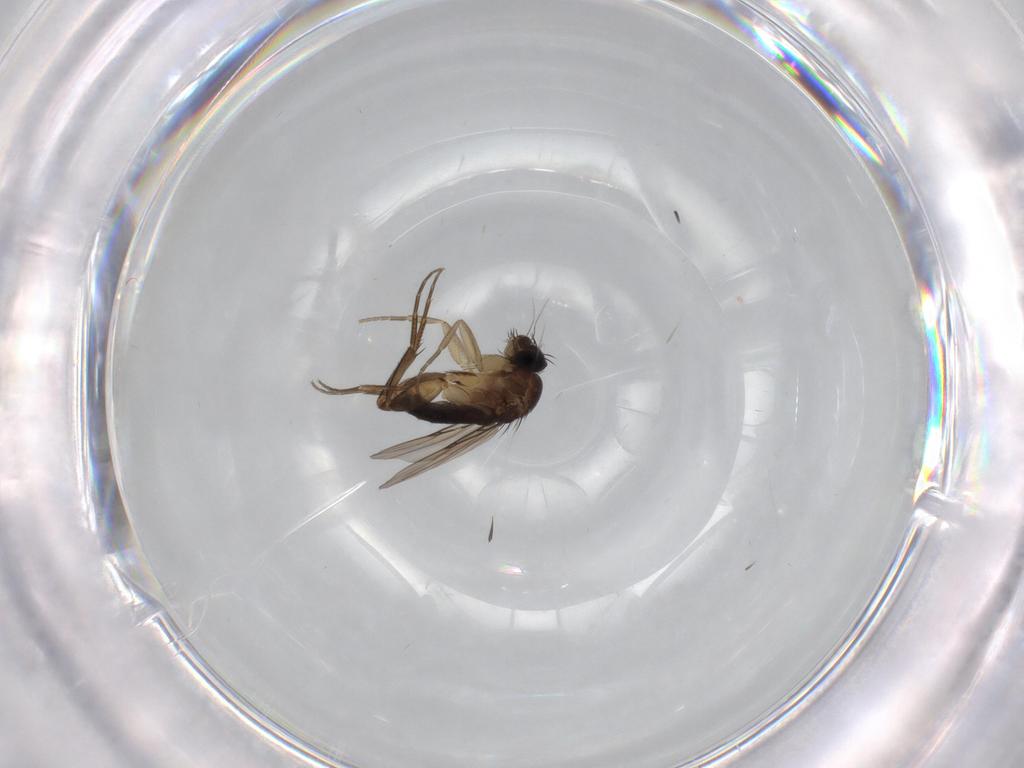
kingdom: Animalia
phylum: Arthropoda
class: Insecta
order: Diptera
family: Phoridae
